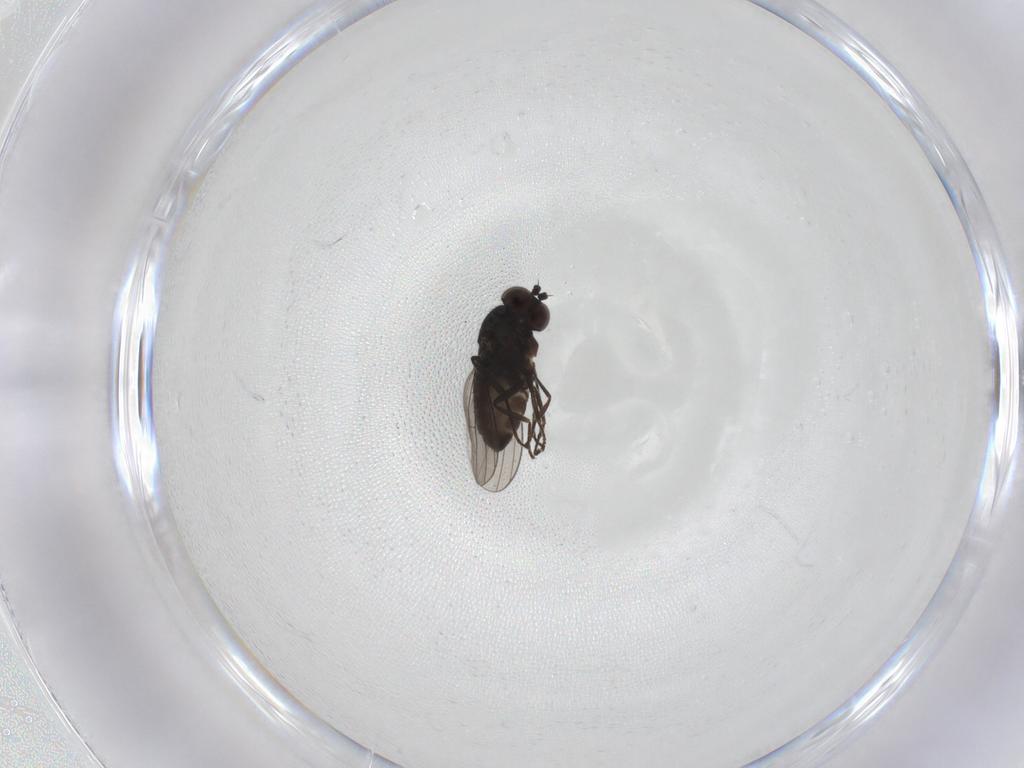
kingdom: Animalia
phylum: Arthropoda
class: Insecta
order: Diptera
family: Dolichopodidae
